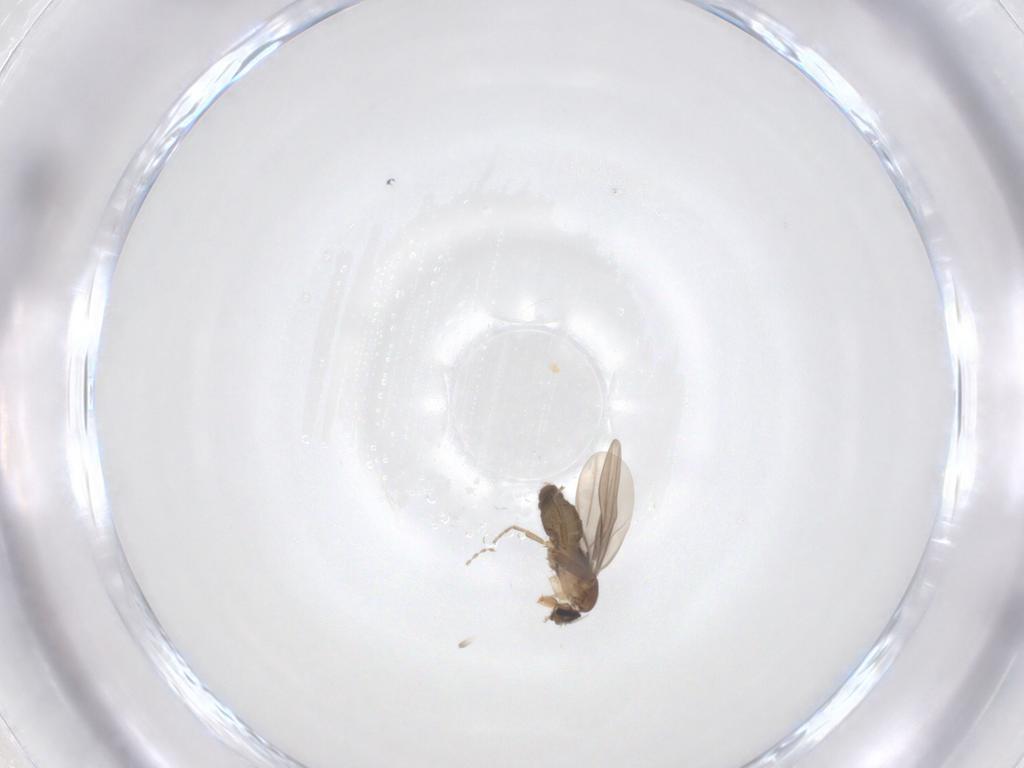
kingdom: Animalia
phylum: Arthropoda
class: Insecta
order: Diptera
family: Cecidomyiidae
